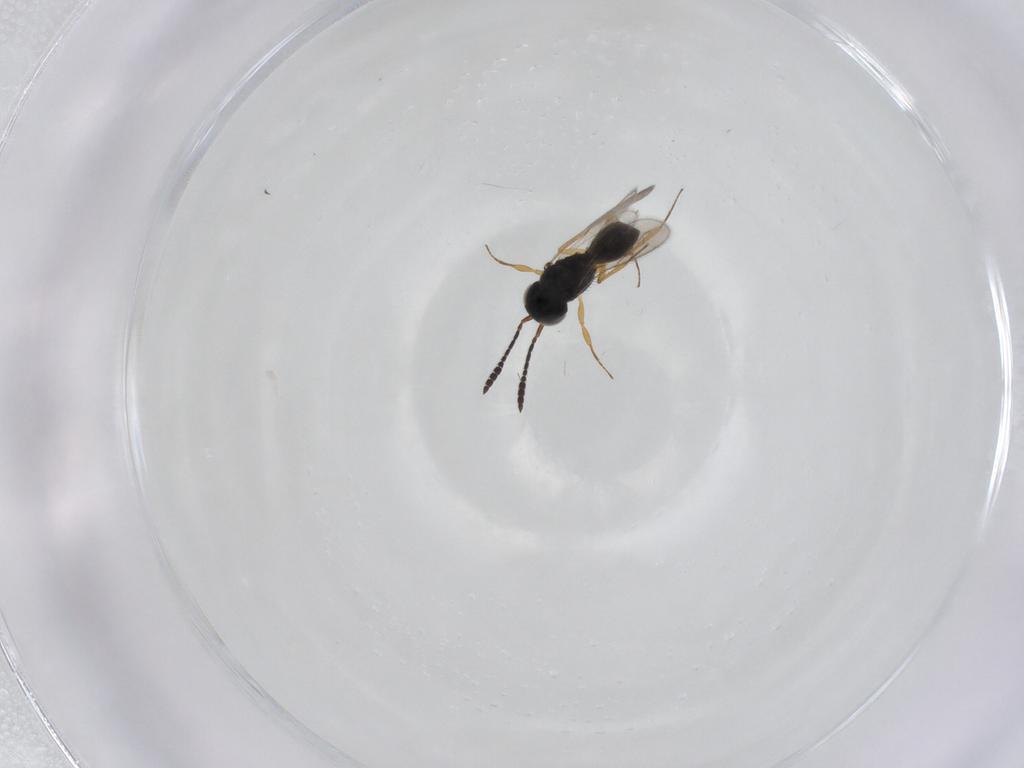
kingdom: Animalia
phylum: Arthropoda
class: Insecta
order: Hymenoptera
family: Scelionidae
